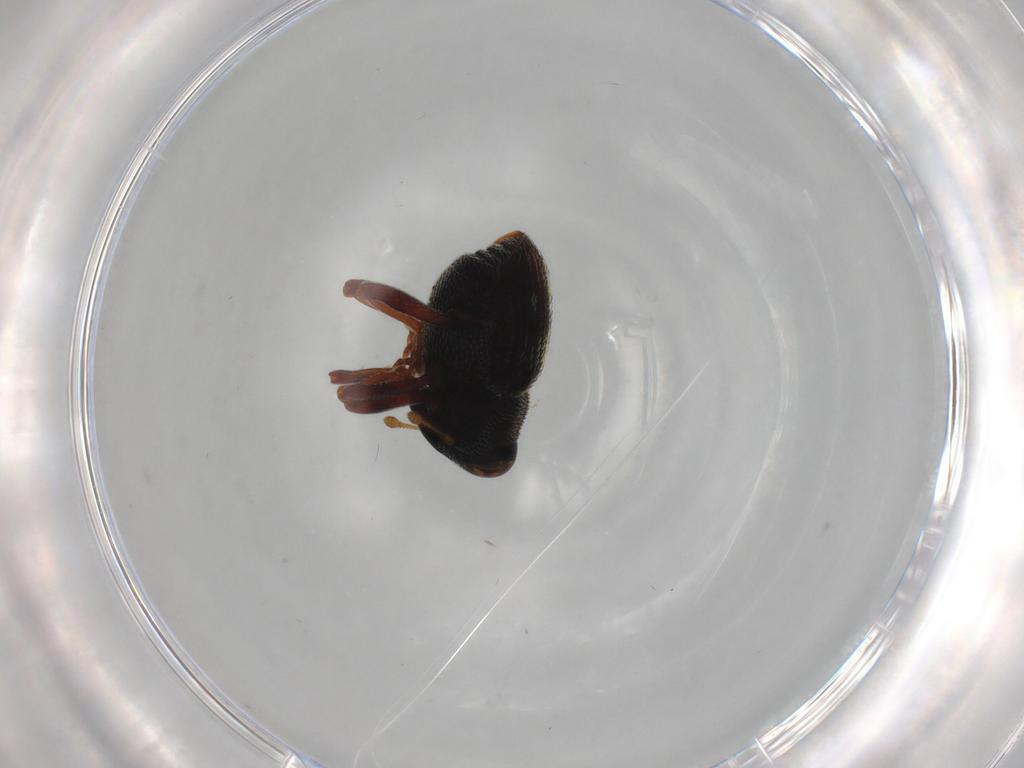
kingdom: Animalia
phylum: Arthropoda
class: Insecta
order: Coleoptera
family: Curculionidae
